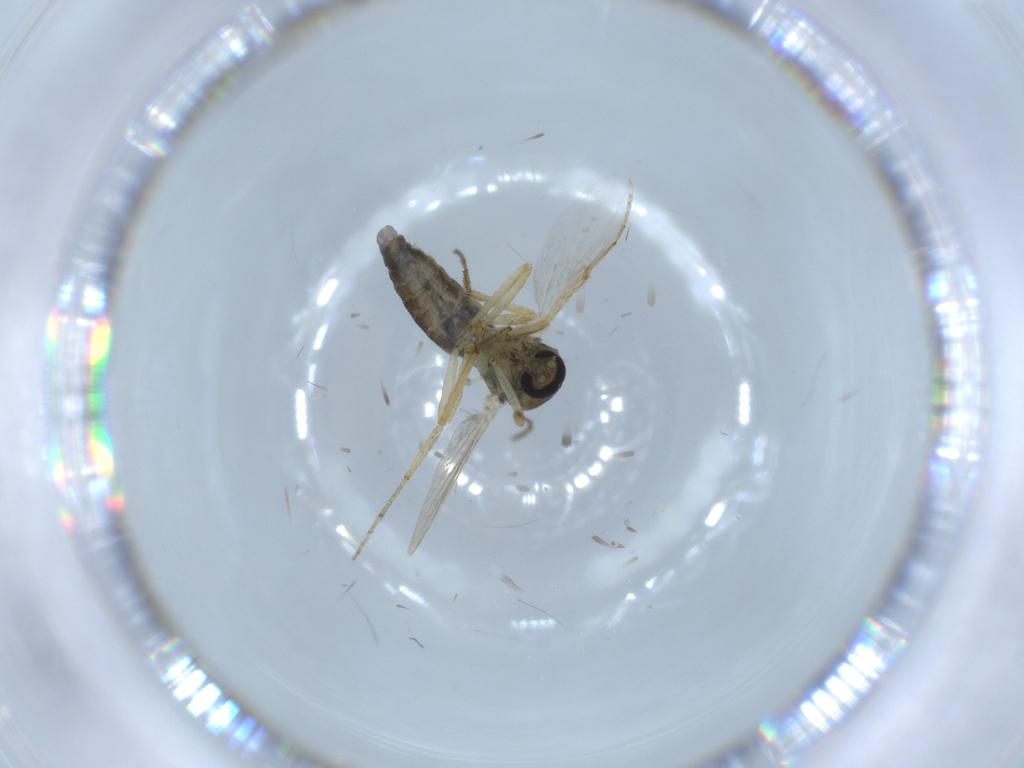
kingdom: Animalia
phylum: Arthropoda
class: Insecta
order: Diptera
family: Ceratopogonidae
